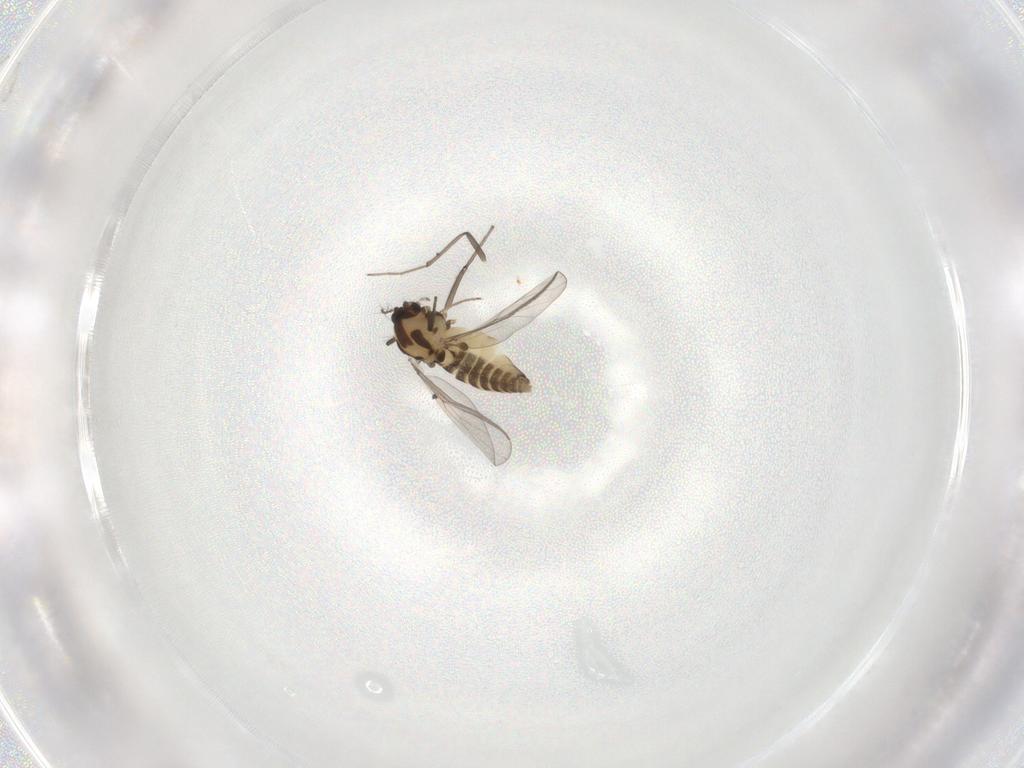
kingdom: Animalia
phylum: Arthropoda
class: Insecta
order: Diptera
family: Chironomidae
